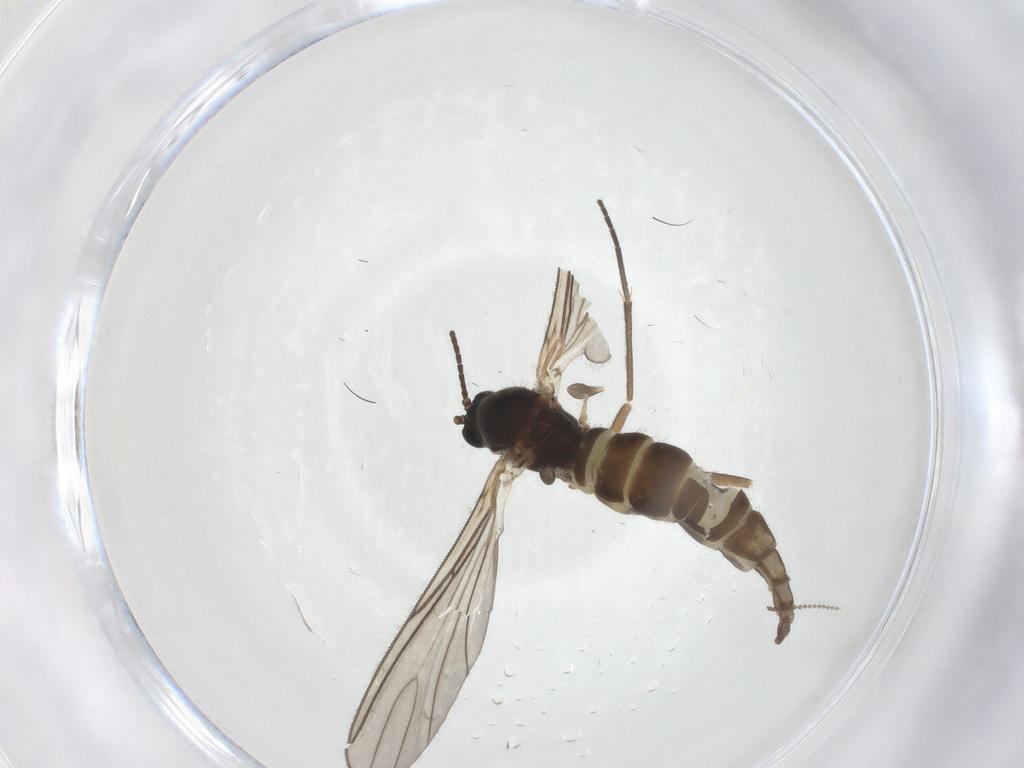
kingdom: Animalia
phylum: Arthropoda
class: Insecta
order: Diptera
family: Sciaridae
